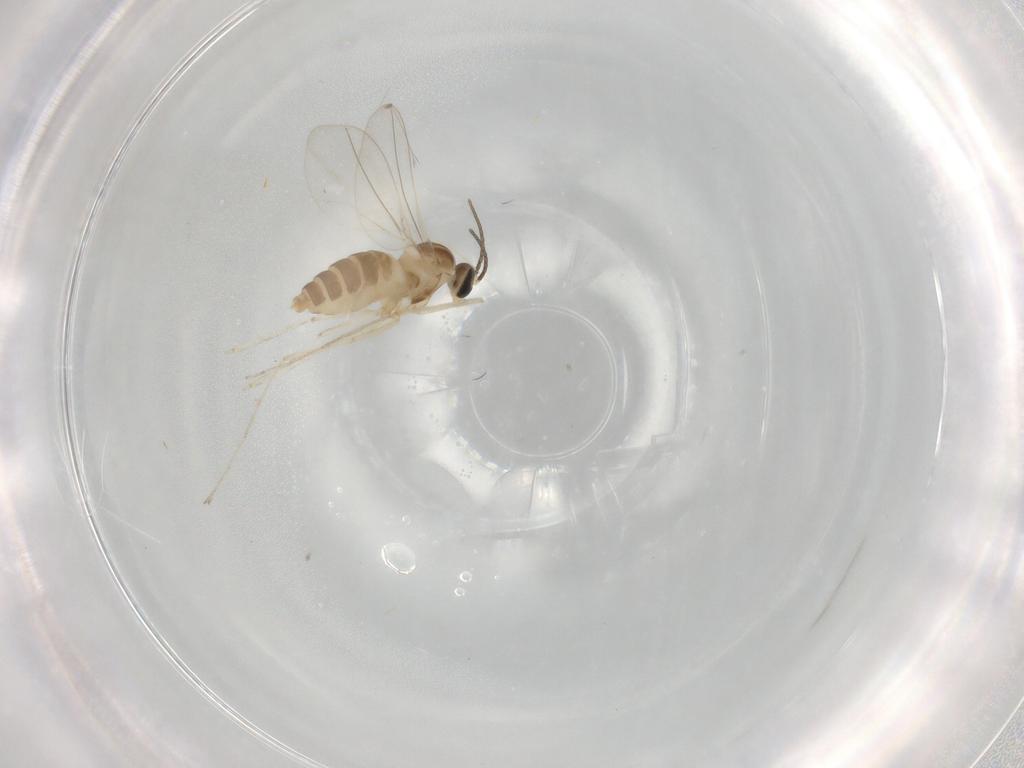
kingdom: Animalia
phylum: Arthropoda
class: Insecta
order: Diptera
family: Cecidomyiidae
